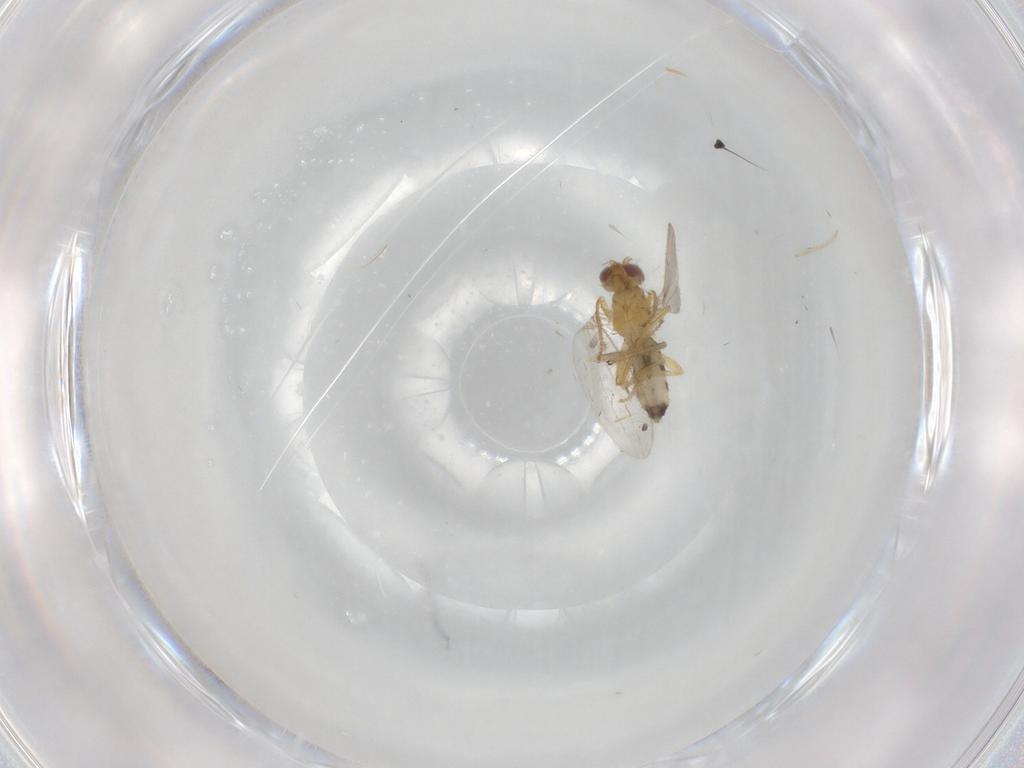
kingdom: Animalia
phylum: Arthropoda
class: Insecta
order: Diptera
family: Periscelididae
